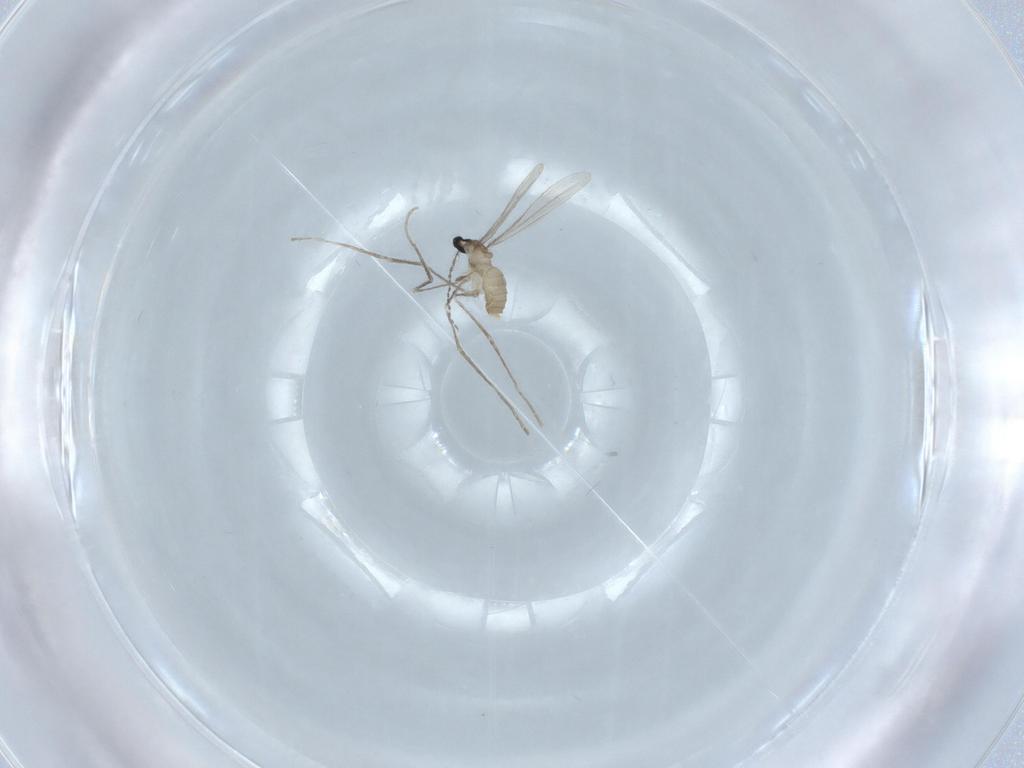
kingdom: Animalia
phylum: Arthropoda
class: Insecta
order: Diptera
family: Cecidomyiidae
